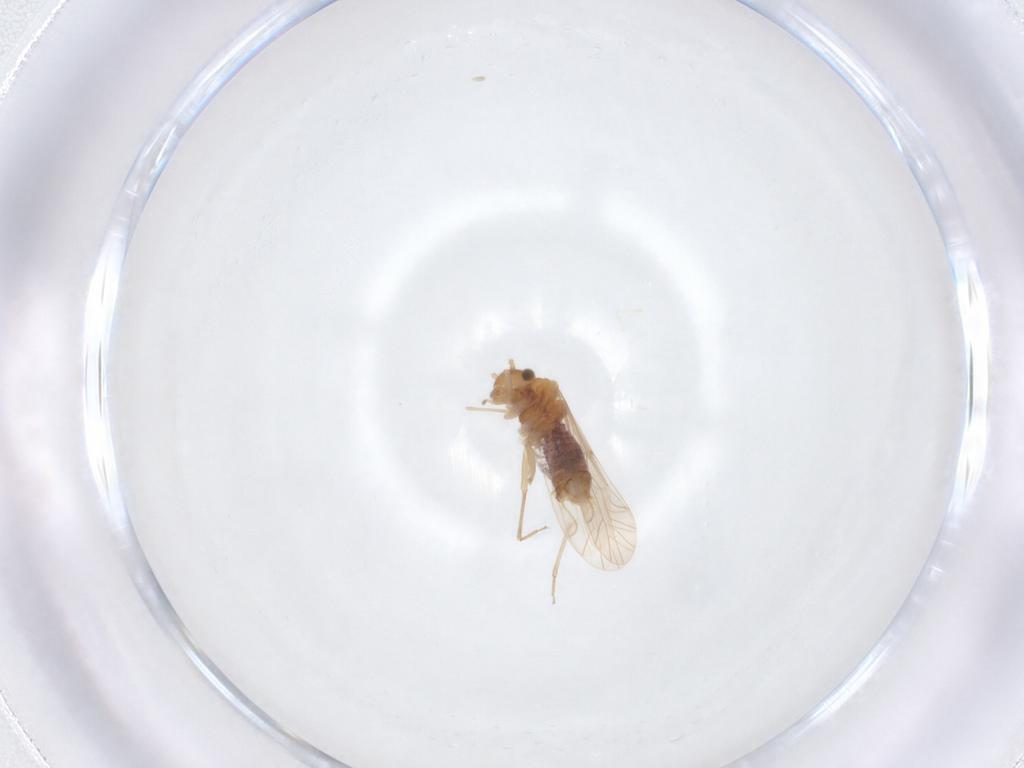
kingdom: Animalia
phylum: Arthropoda
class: Insecta
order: Psocodea
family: Lachesillidae
